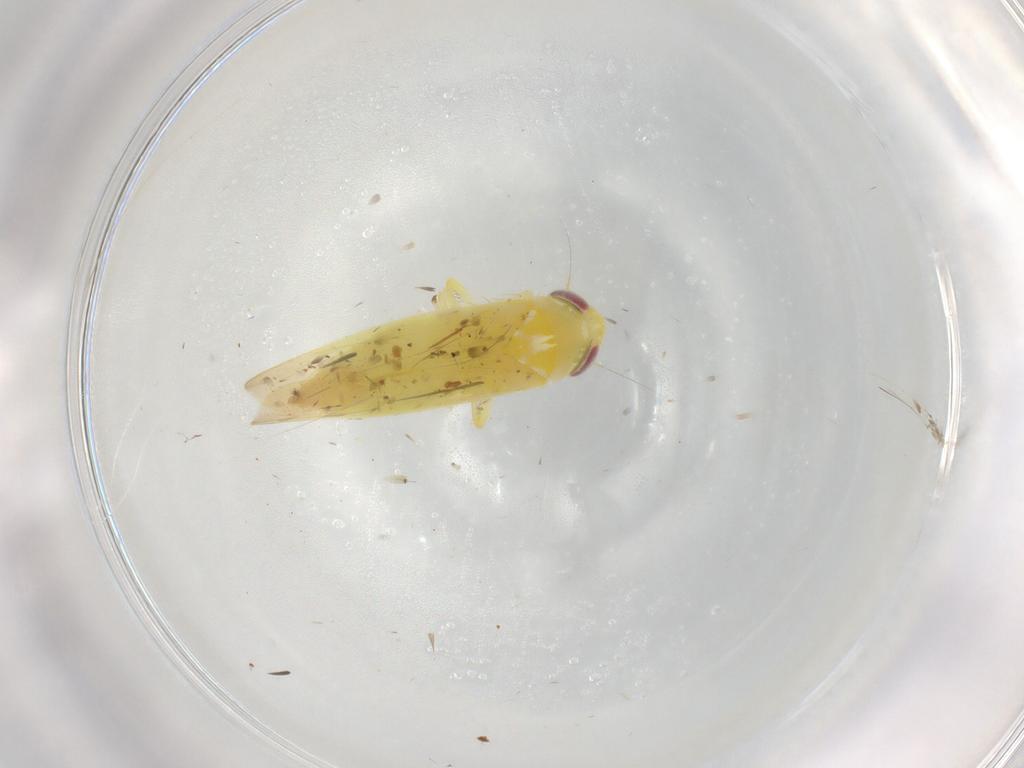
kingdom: Animalia
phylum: Arthropoda
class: Insecta
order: Hemiptera
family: Cicadellidae
